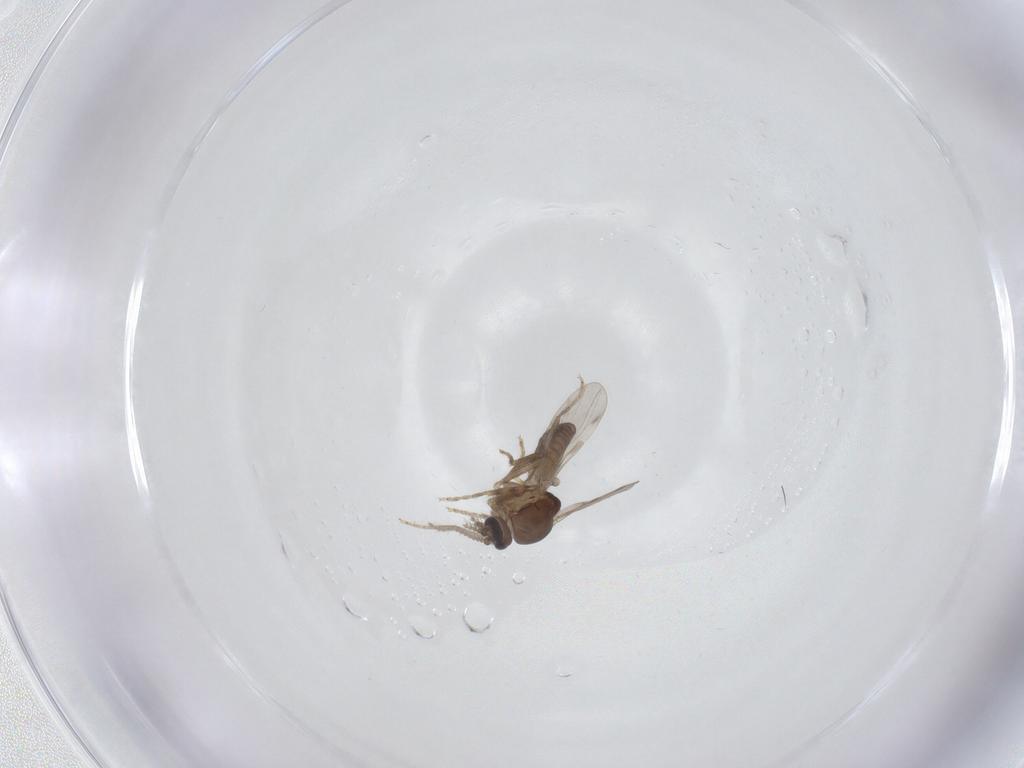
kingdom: Animalia
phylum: Arthropoda
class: Insecta
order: Diptera
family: Ceratopogonidae
